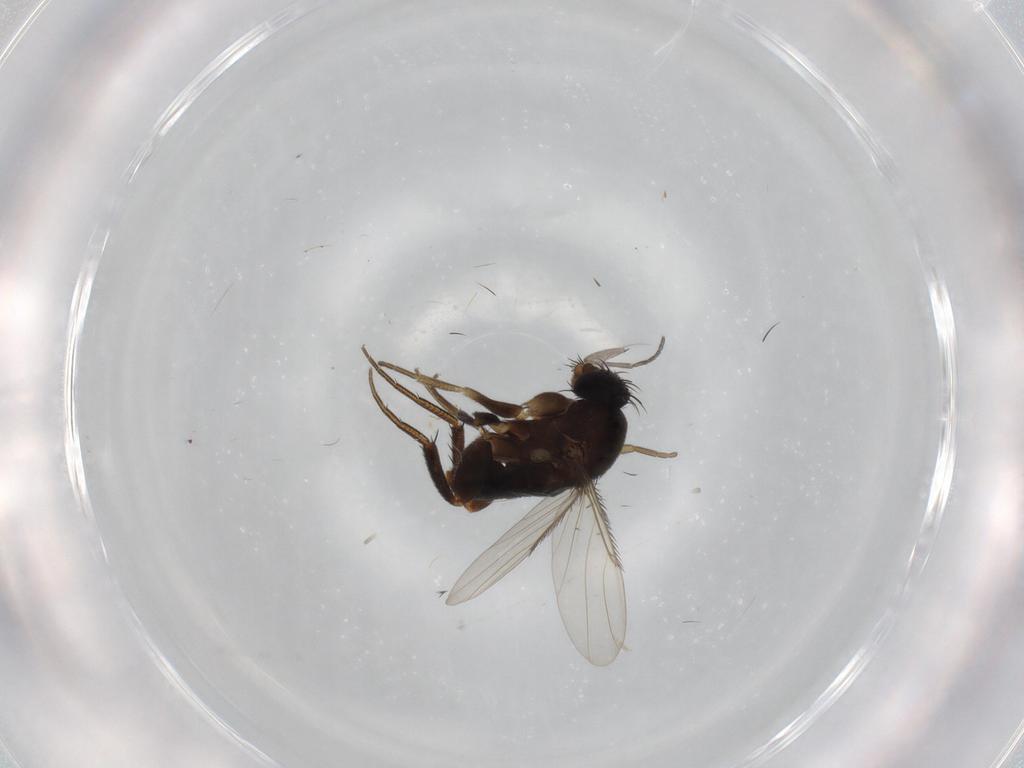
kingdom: Animalia
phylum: Arthropoda
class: Insecta
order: Diptera
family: Phoridae
